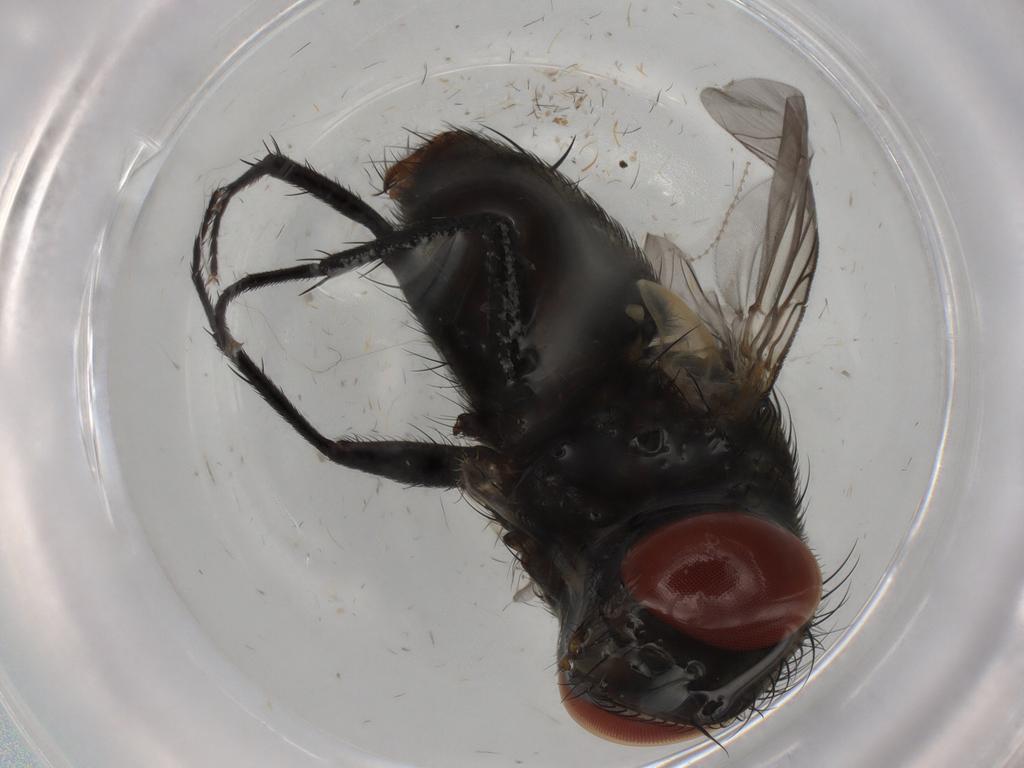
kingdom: Animalia
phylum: Arthropoda
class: Insecta
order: Diptera
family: Sarcophagidae
